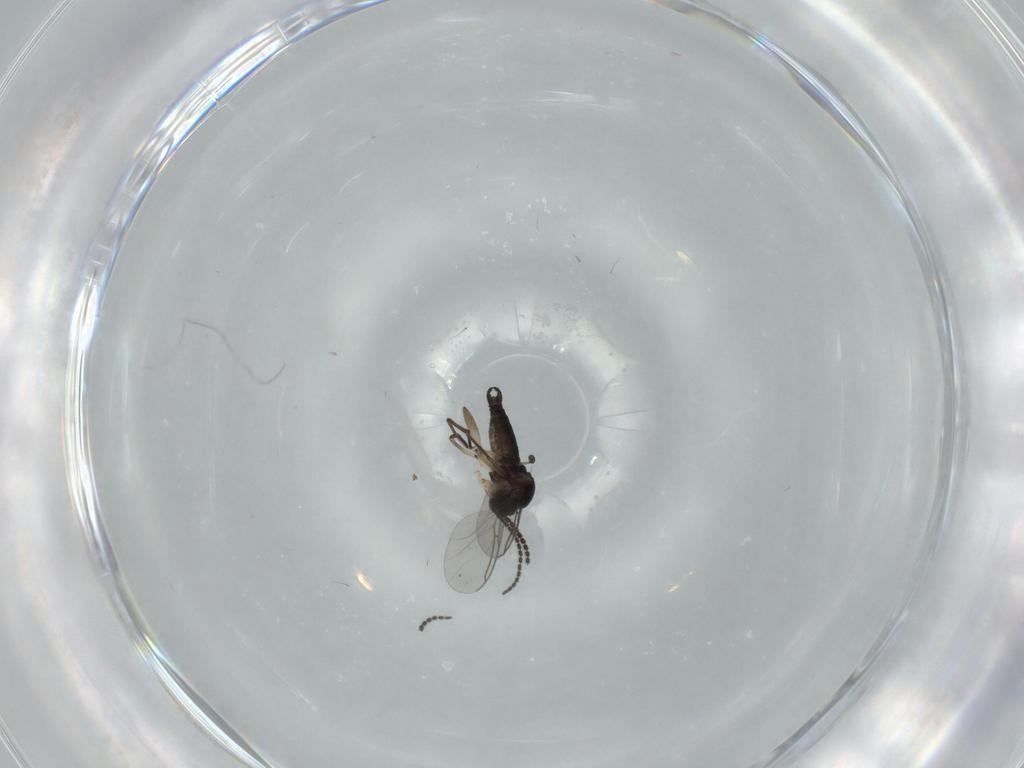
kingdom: Animalia
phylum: Arthropoda
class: Insecta
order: Diptera
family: Sciaridae
